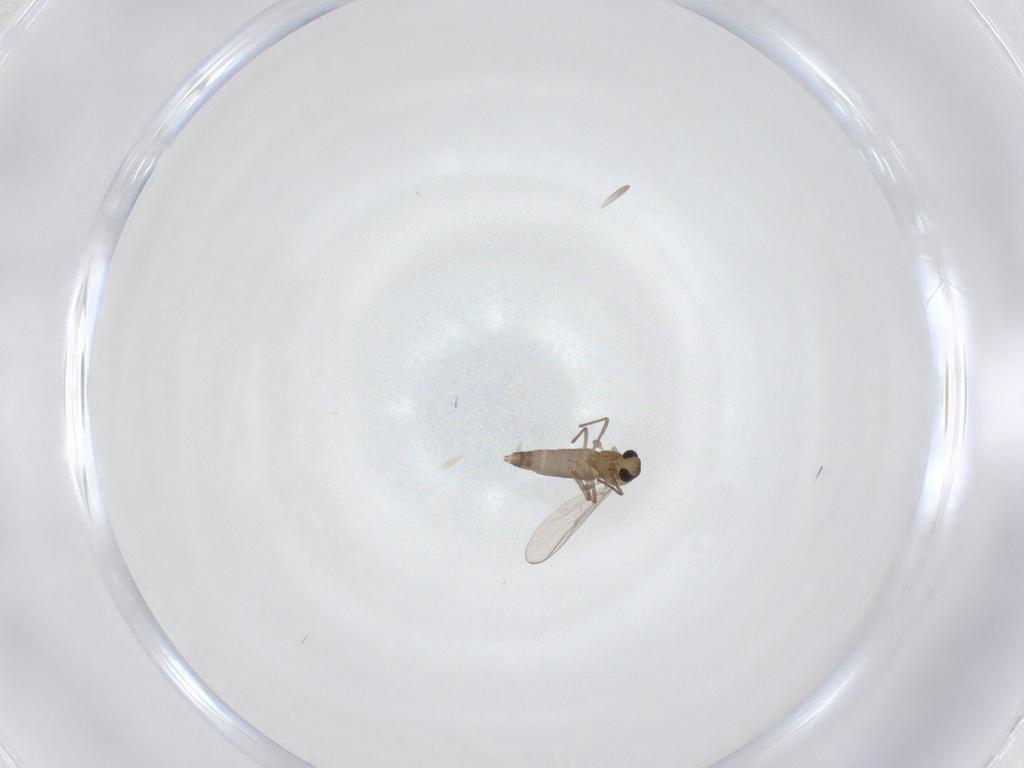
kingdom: Animalia
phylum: Arthropoda
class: Insecta
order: Diptera
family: Chironomidae
